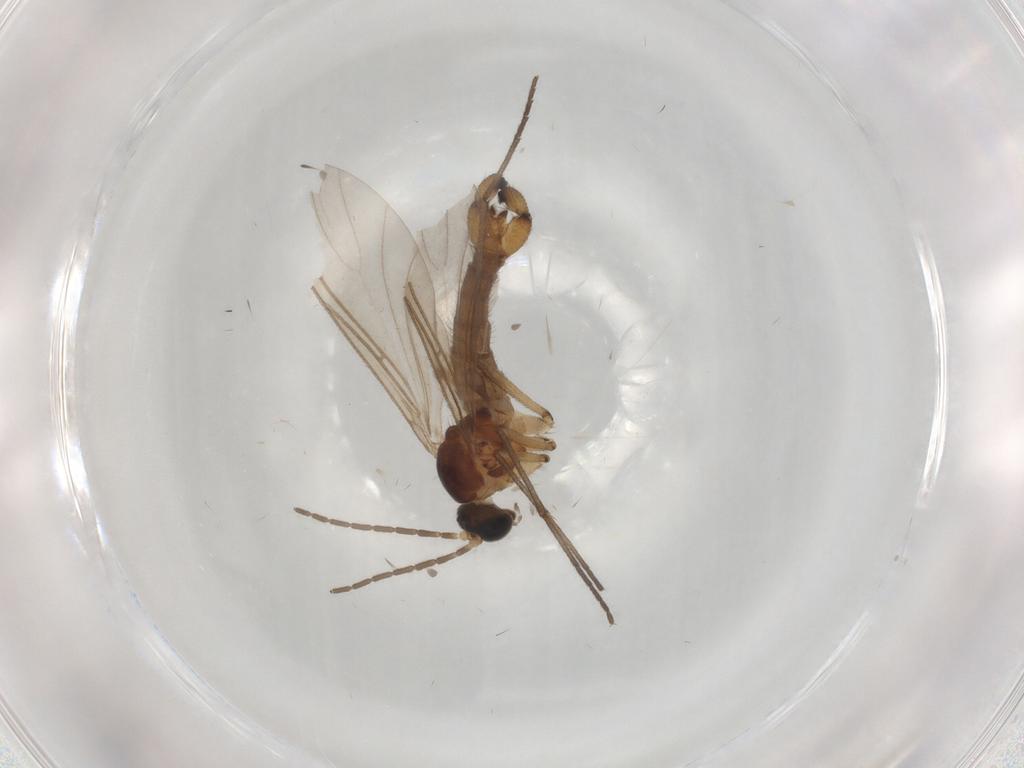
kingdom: Animalia
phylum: Arthropoda
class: Insecta
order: Diptera
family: Sciaridae
